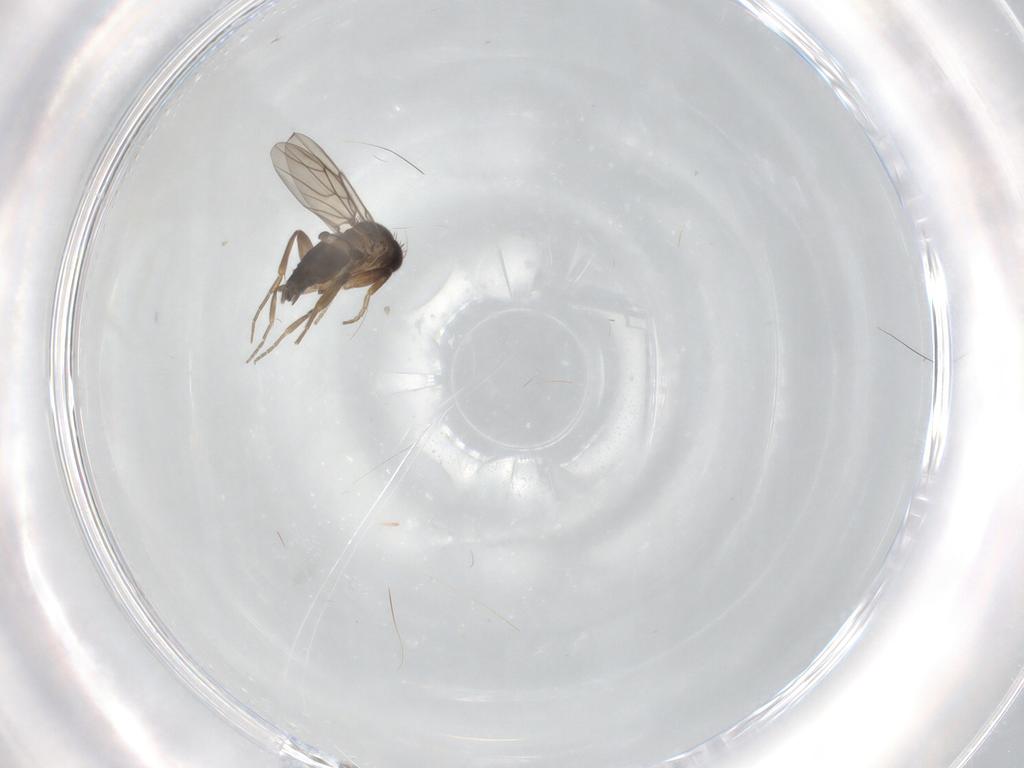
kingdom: Animalia
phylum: Arthropoda
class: Insecta
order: Diptera
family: Phoridae
